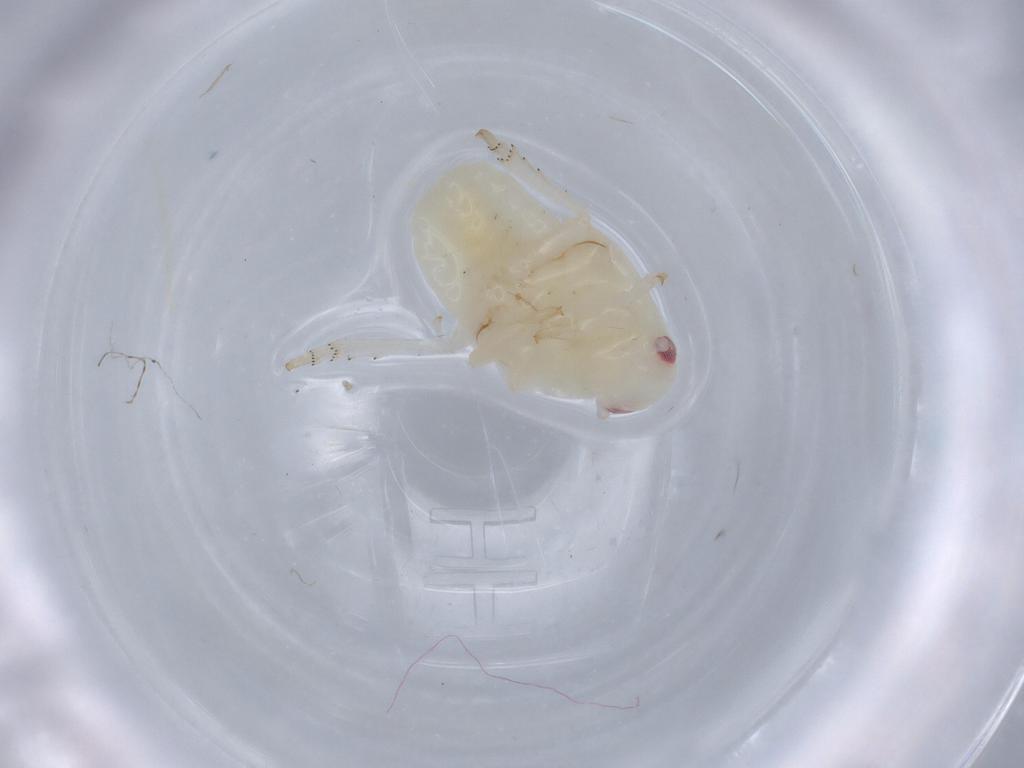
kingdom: Animalia
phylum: Arthropoda
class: Insecta
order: Hemiptera
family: Flatidae
